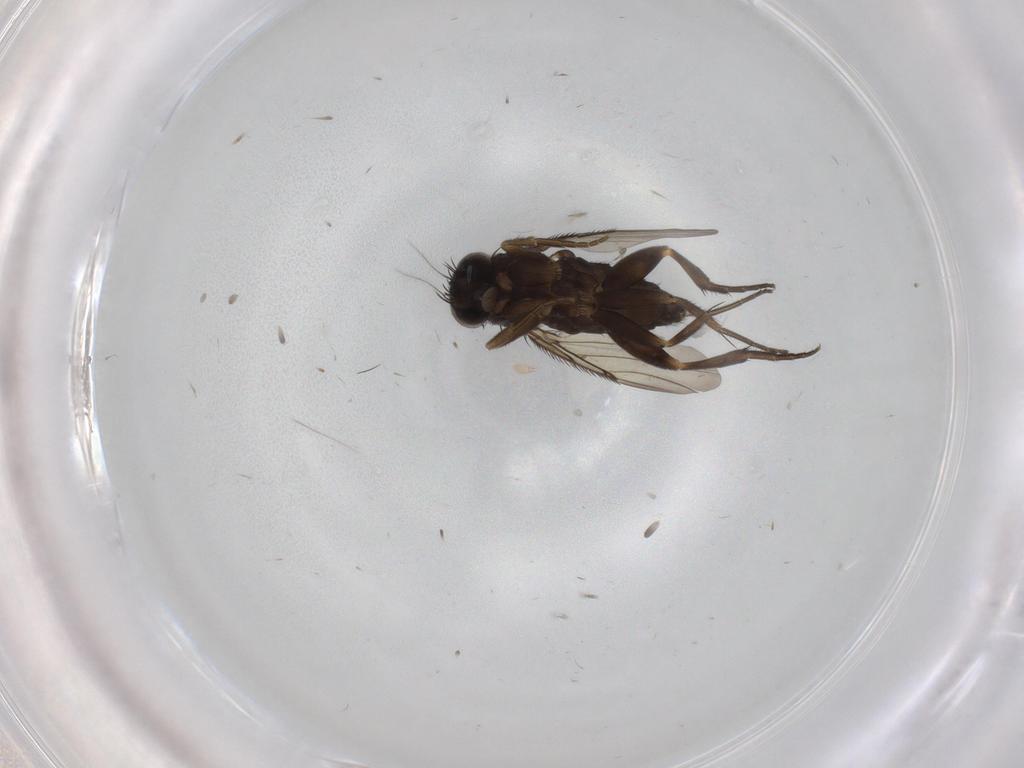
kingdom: Animalia
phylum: Arthropoda
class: Insecta
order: Diptera
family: Phoridae
